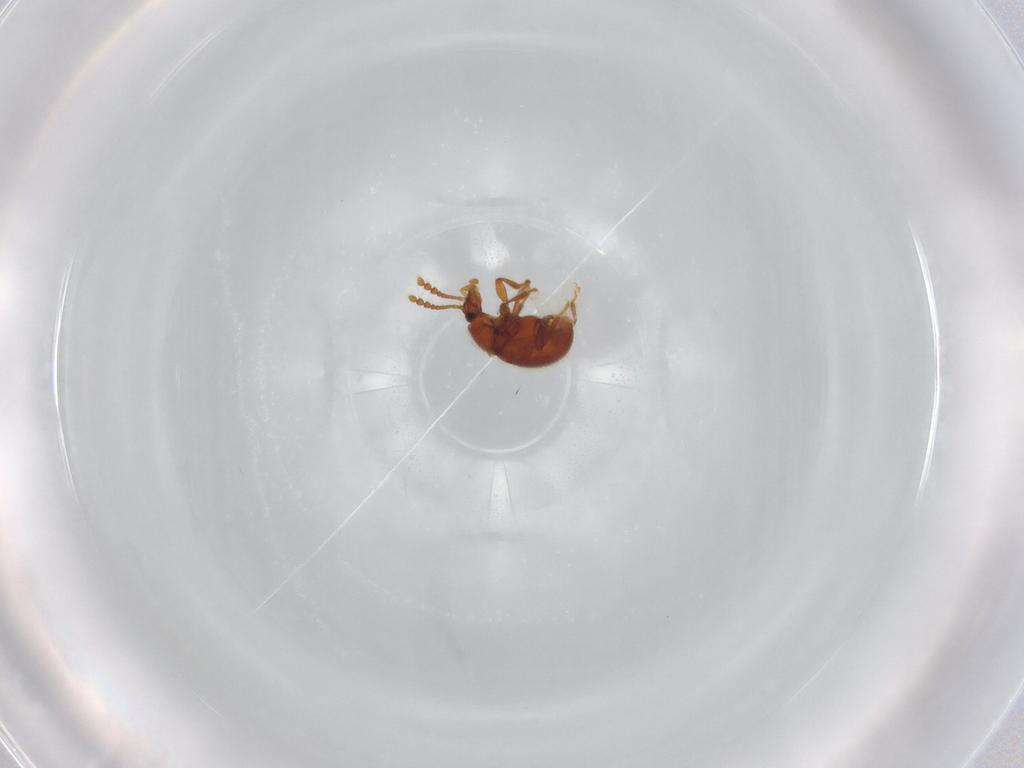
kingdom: Animalia
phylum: Arthropoda
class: Insecta
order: Coleoptera
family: Staphylinidae
